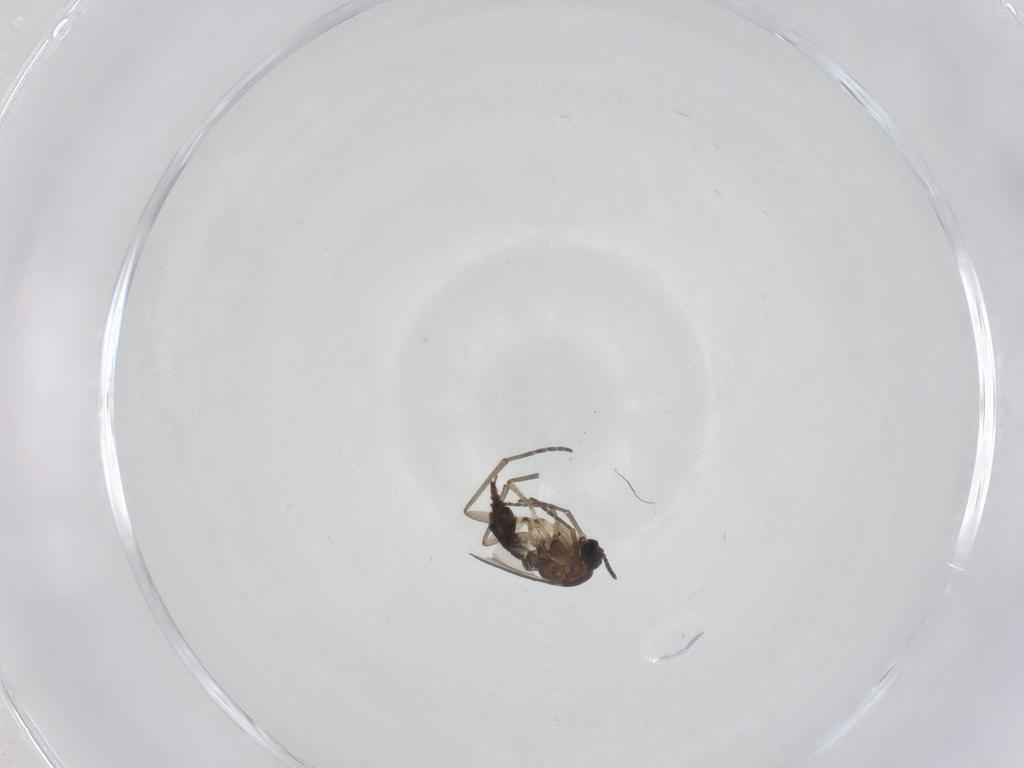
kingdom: Animalia
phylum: Arthropoda
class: Insecta
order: Diptera
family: Sciaridae
